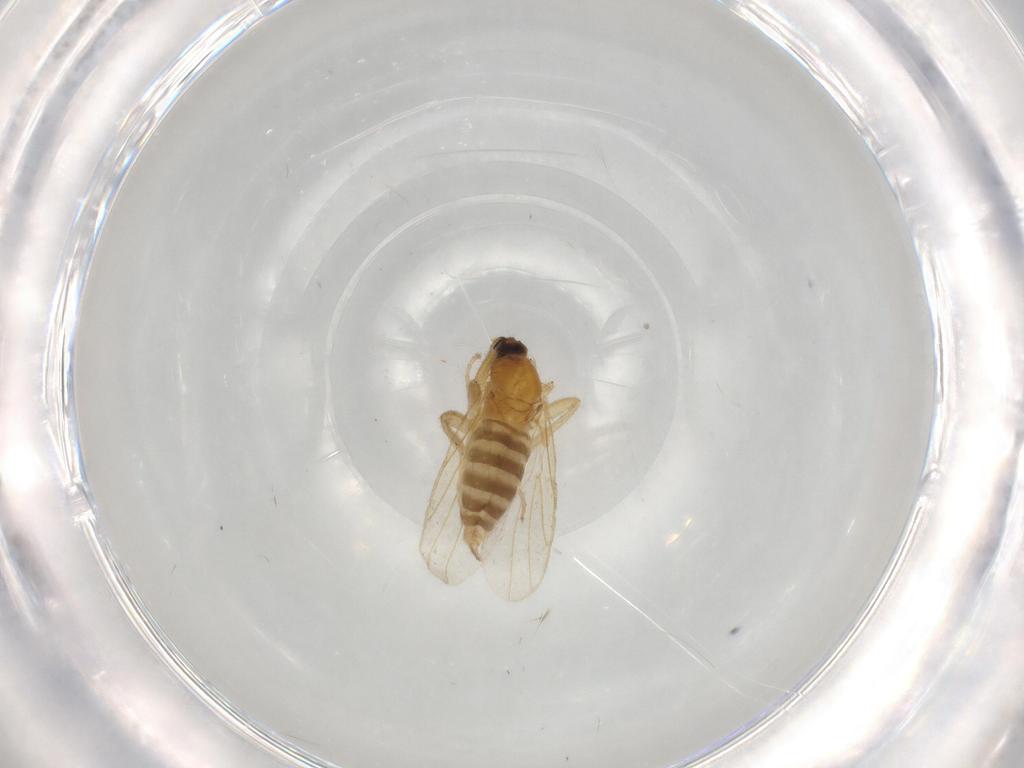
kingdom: Animalia
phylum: Arthropoda
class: Insecta
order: Diptera
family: Hybotidae
